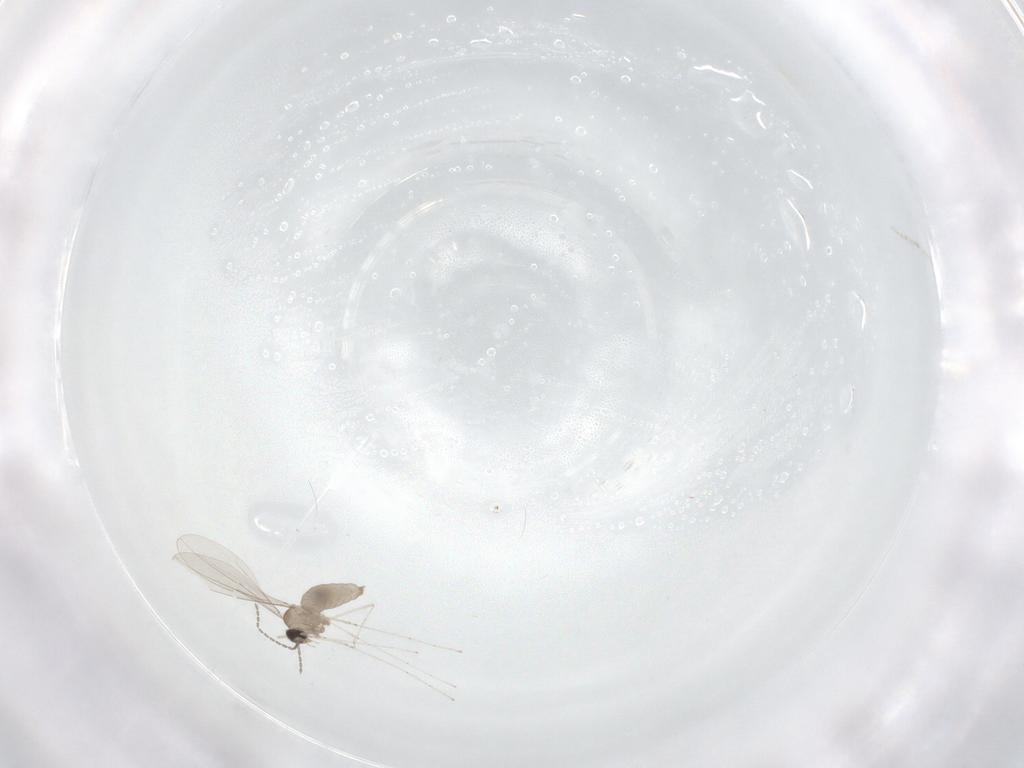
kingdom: Animalia
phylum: Arthropoda
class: Insecta
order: Diptera
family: Cecidomyiidae
